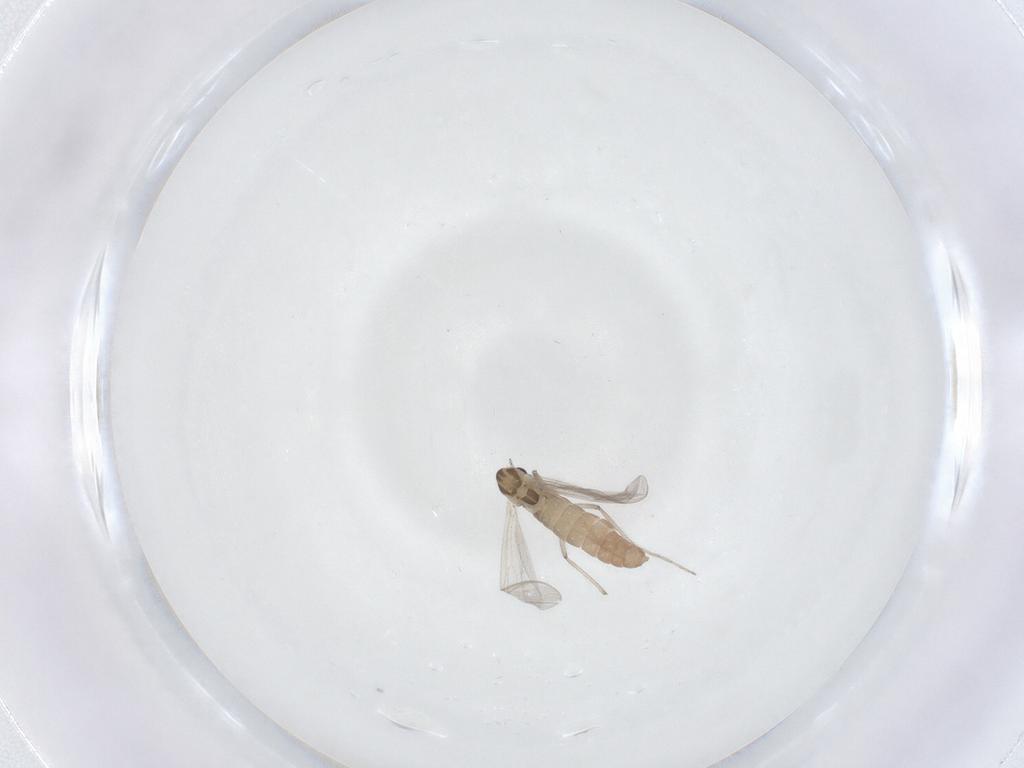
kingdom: Animalia
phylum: Arthropoda
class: Insecta
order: Diptera
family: Chironomidae
